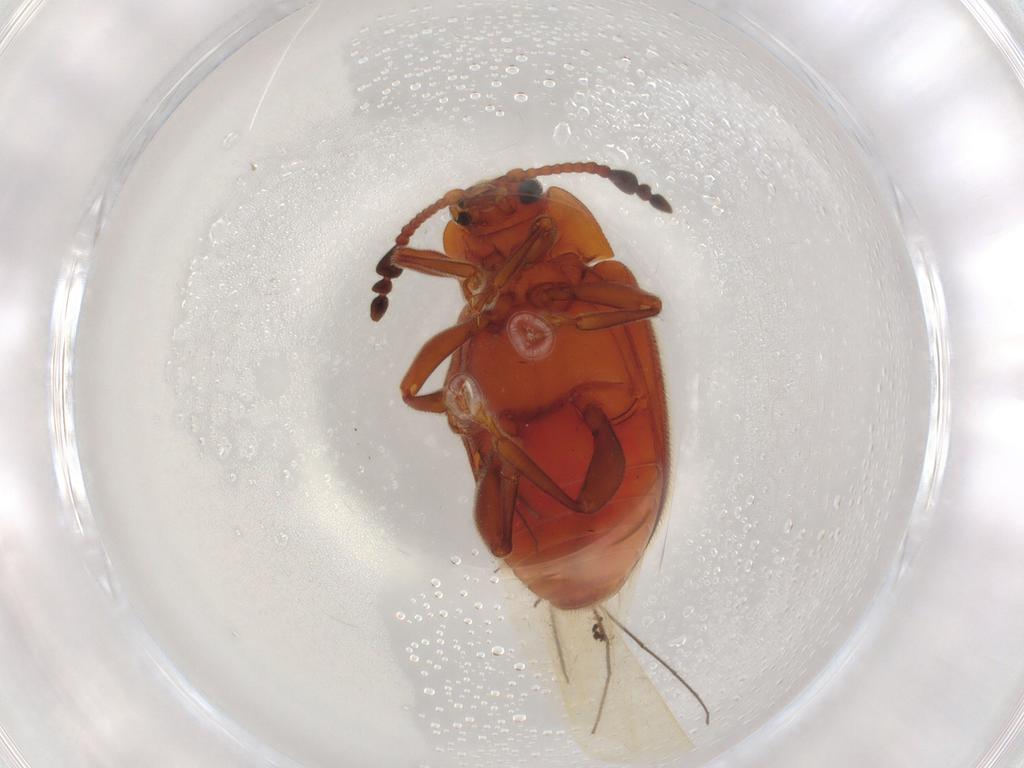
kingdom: Animalia
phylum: Arthropoda
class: Insecta
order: Coleoptera
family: Endomychidae
